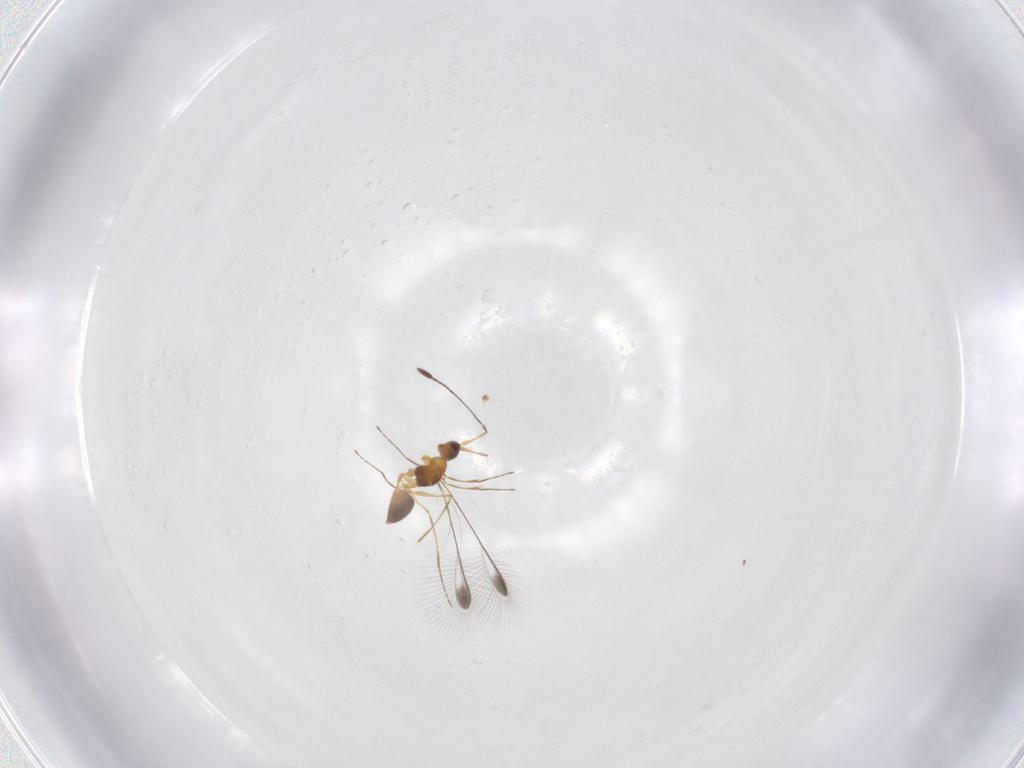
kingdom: Animalia
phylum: Arthropoda
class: Insecta
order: Hymenoptera
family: Mymaridae
